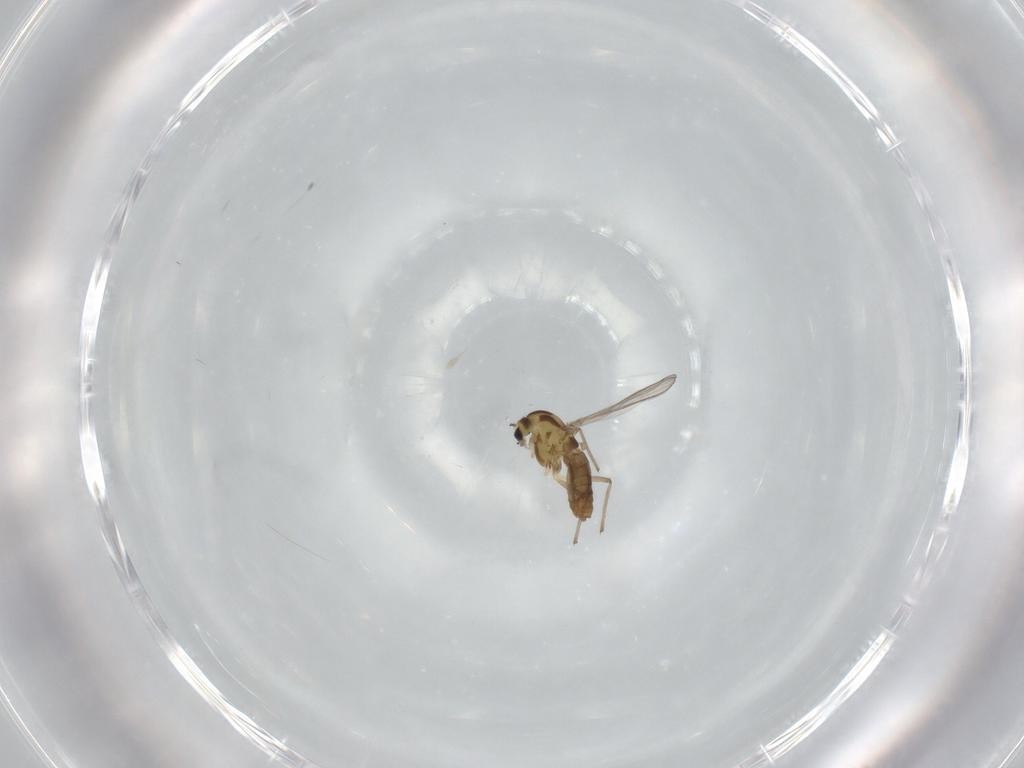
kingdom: Animalia
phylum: Arthropoda
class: Insecta
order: Diptera
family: Chironomidae
